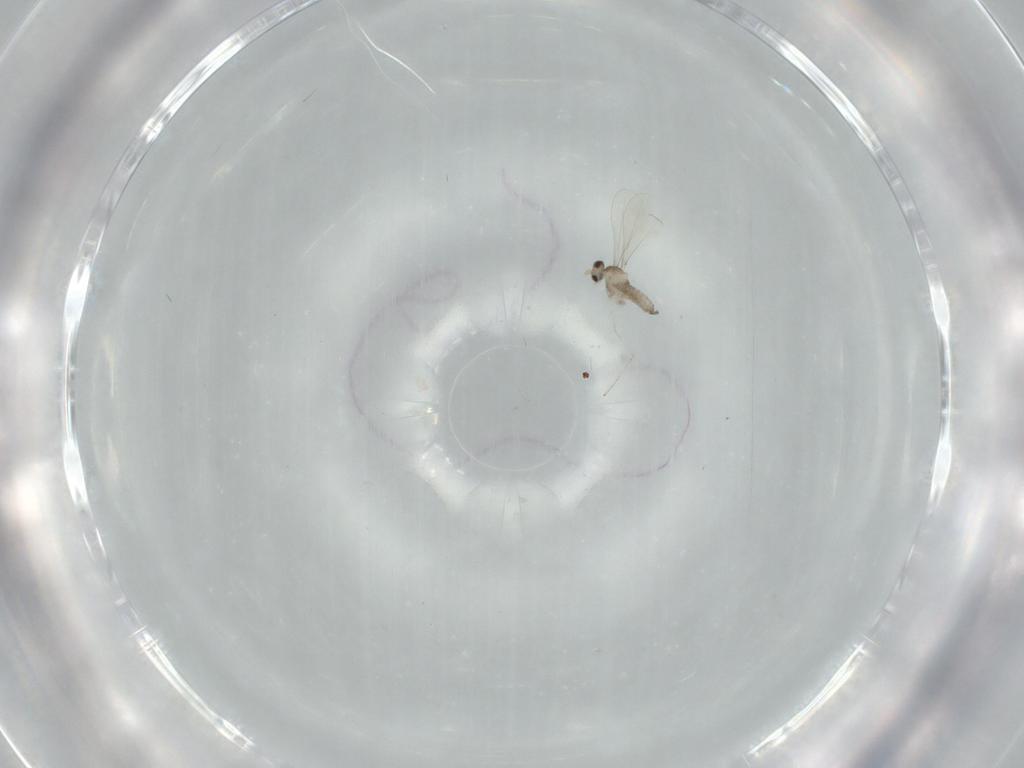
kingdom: Animalia
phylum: Arthropoda
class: Insecta
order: Diptera
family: Cecidomyiidae
